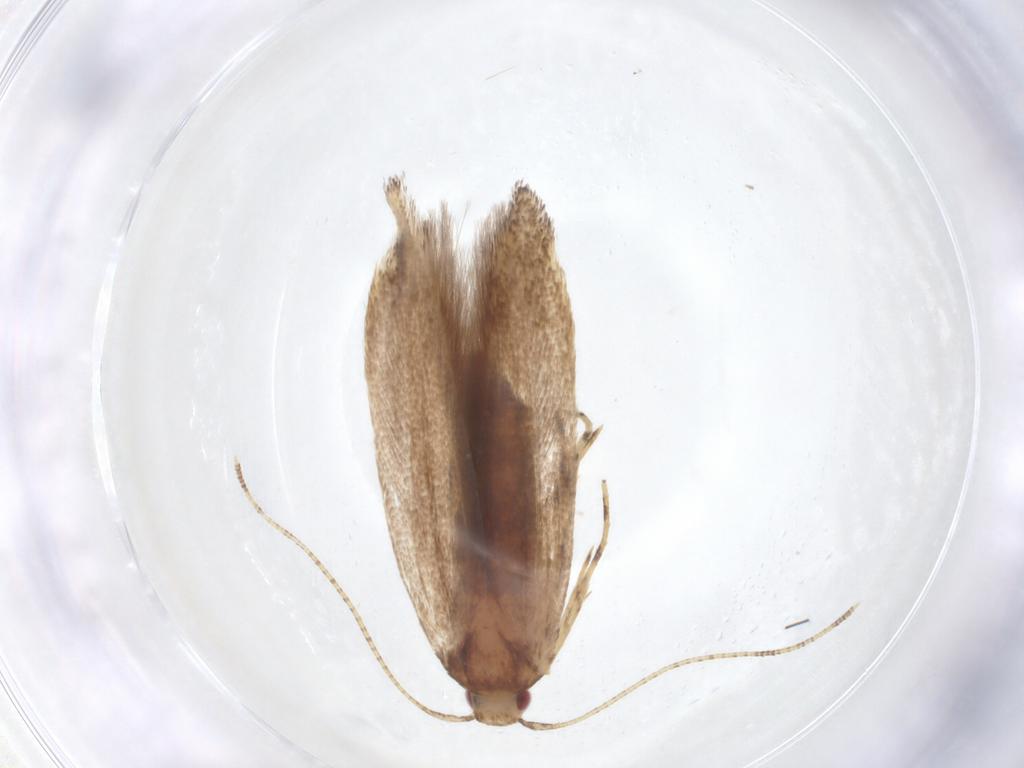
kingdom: Animalia
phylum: Arthropoda
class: Insecta
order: Lepidoptera
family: Erebidae
